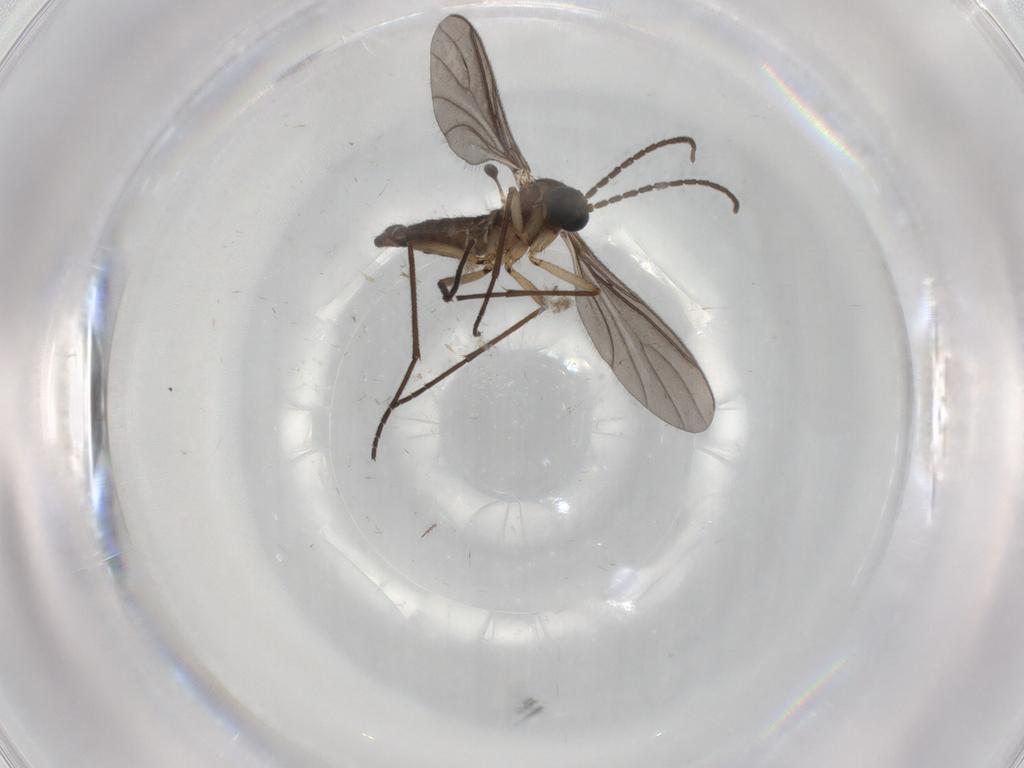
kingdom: Animalia
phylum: Arthropoda
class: Insecta
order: Diptera
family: Sciaridae
